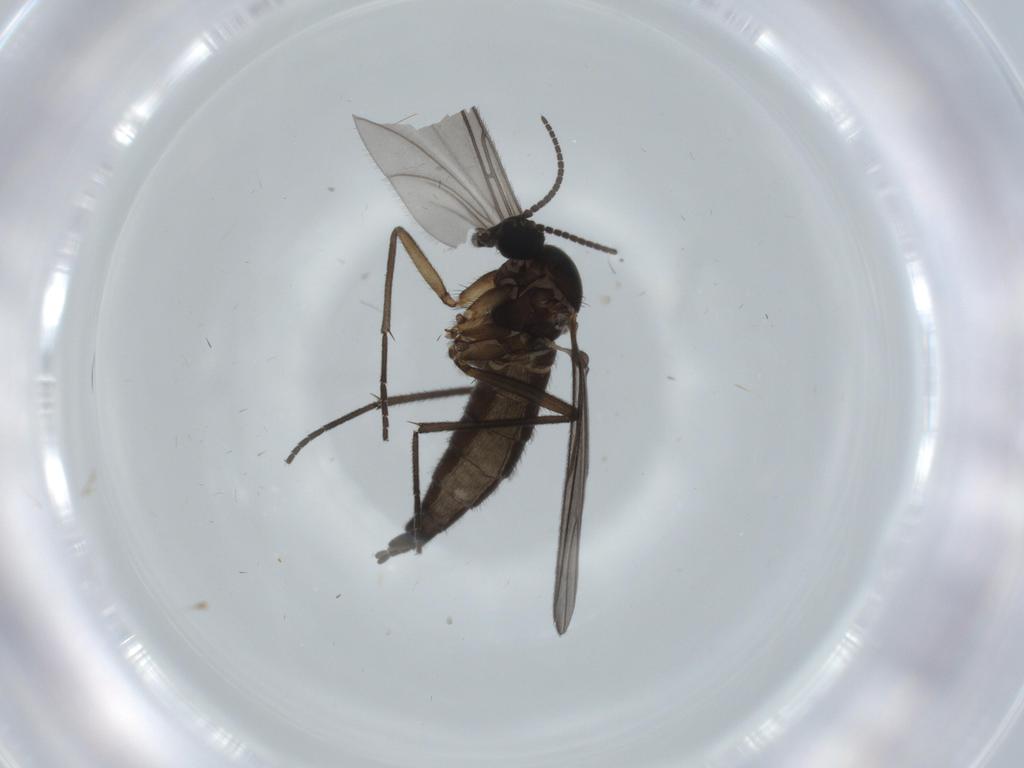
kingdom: Animalia
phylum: Arthropoda
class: Insecta
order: Diptera
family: Sciaridae
